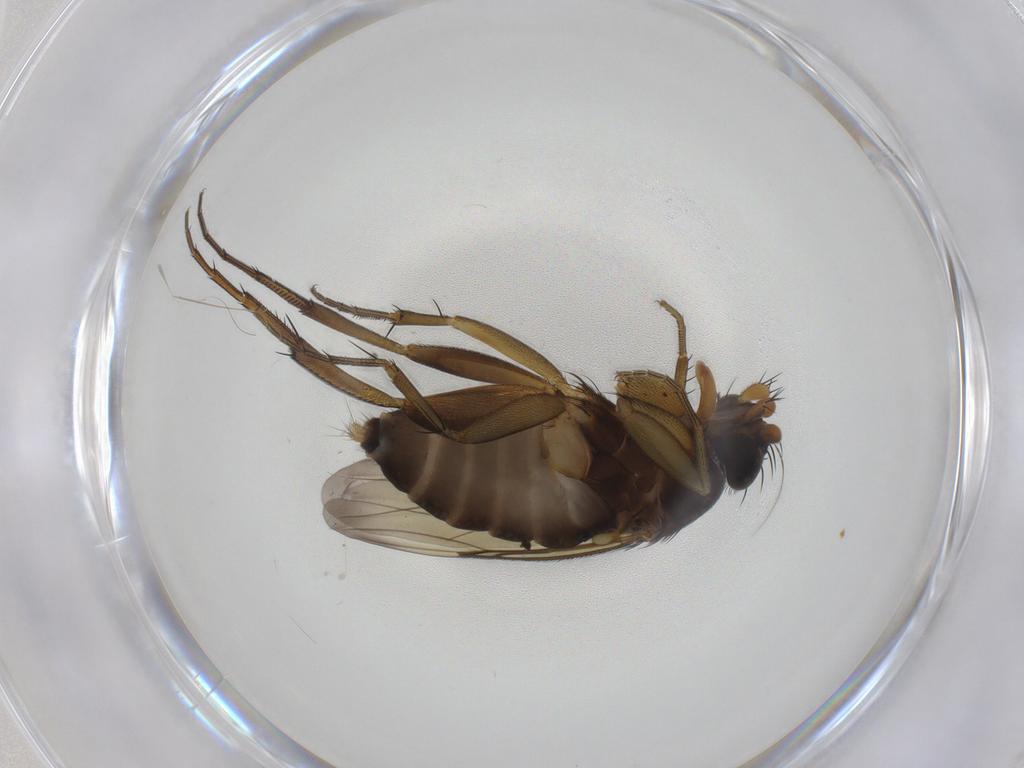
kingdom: Animalia
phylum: Arthropoda
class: Insecta
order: Diptera
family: Phoridae
